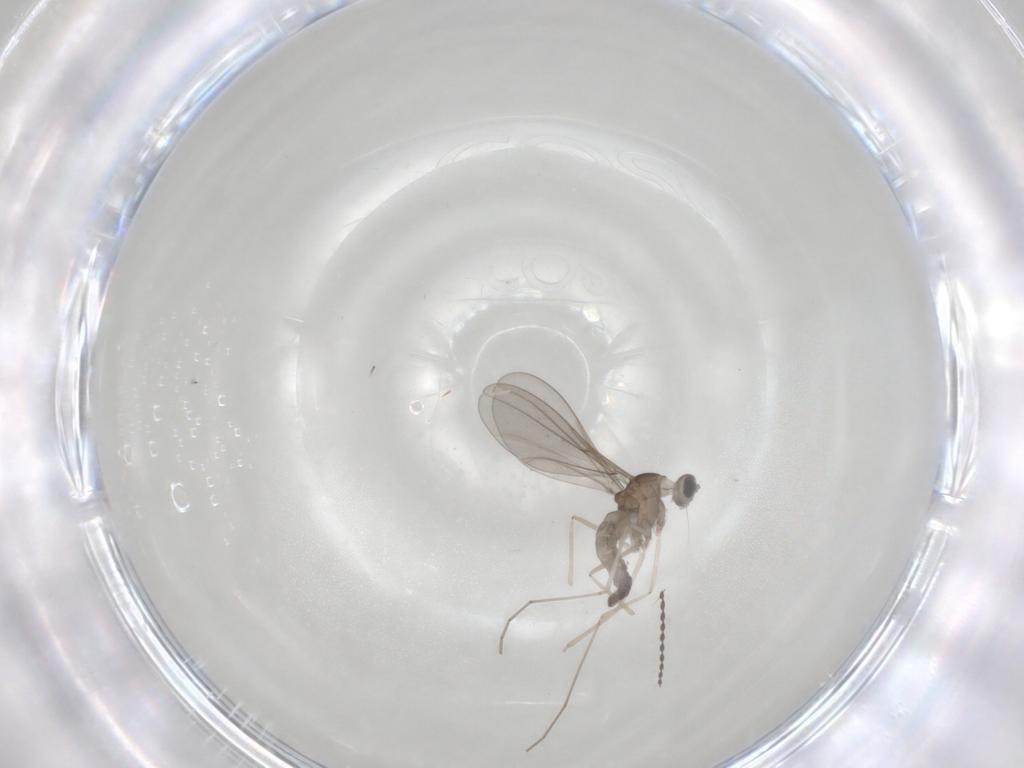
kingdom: Animalia
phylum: Arthropoda
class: Insecta
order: Diptera
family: Cecidomyiidae
